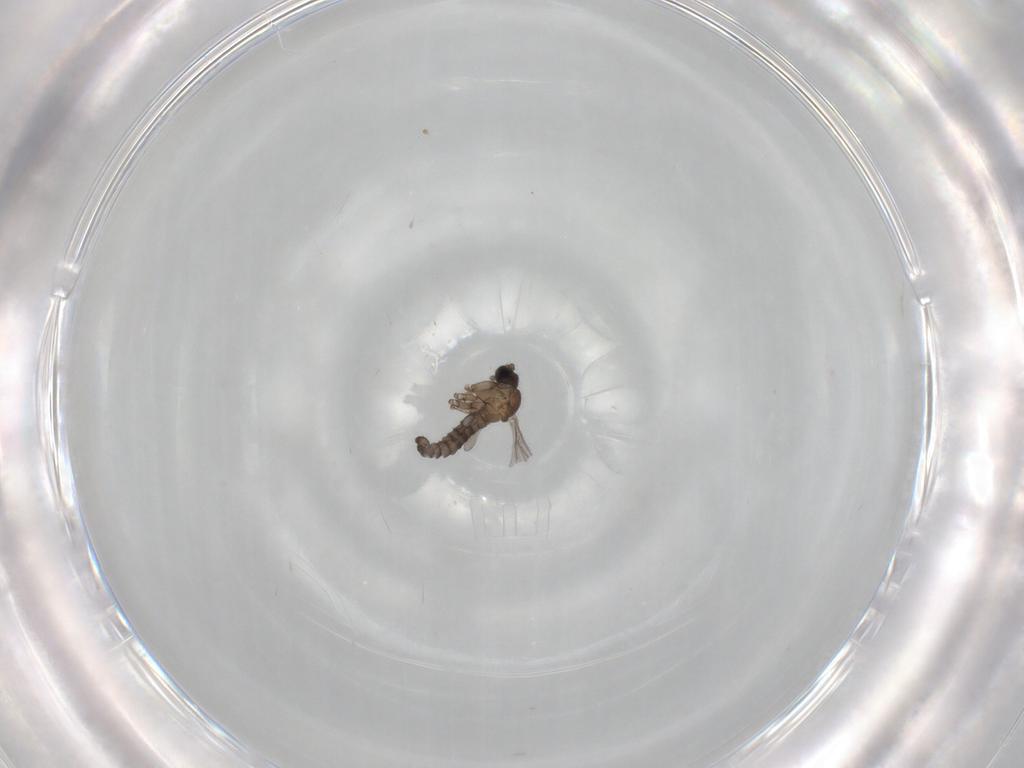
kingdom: Animalia
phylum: Arthropoda
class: Insecta
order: Diptera
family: Sciaridae
